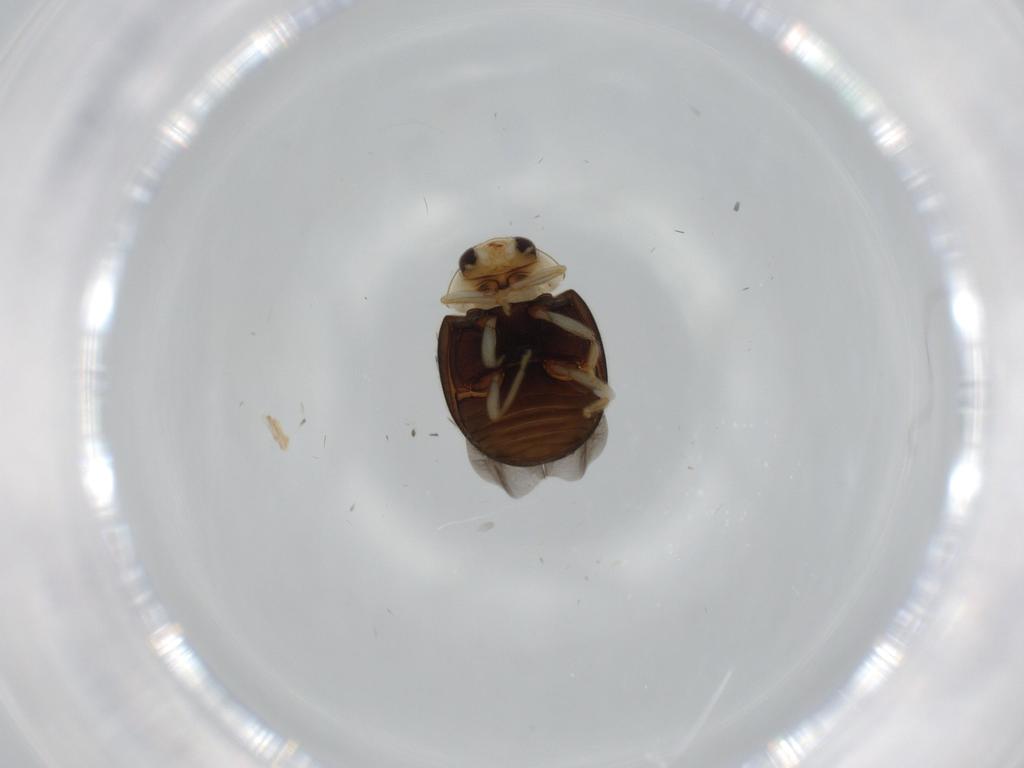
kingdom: Animalia
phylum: Arthropoda
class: Insecta
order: Coleoptera
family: Coccinellidae
